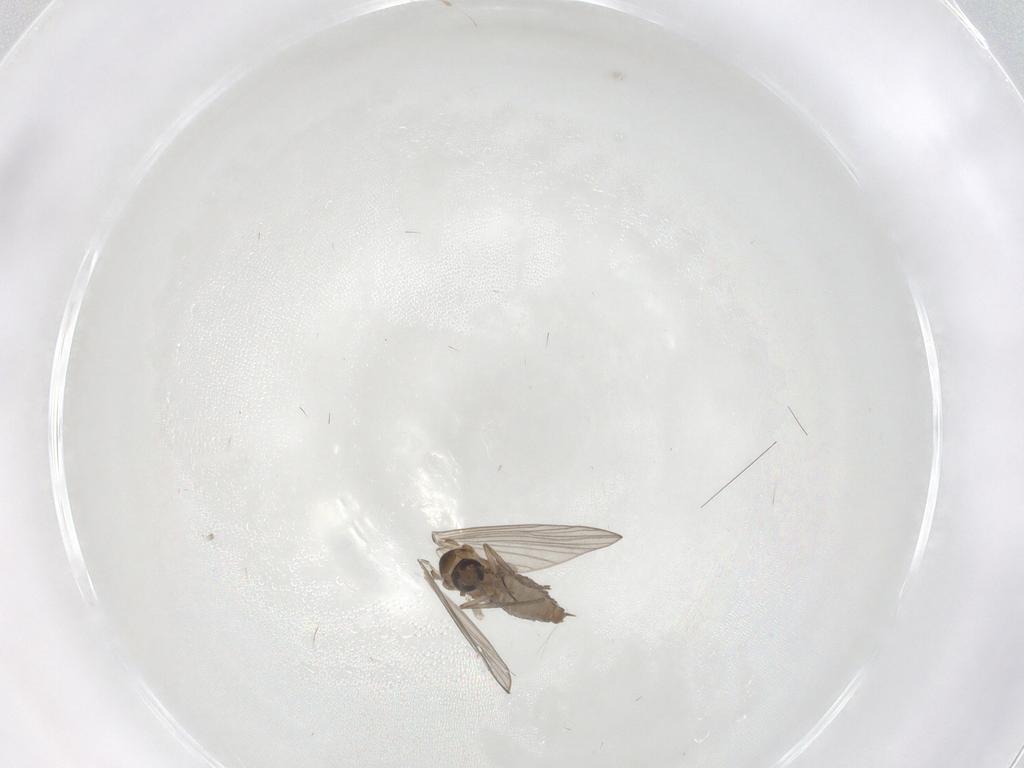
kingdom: Animalia
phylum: Arthropoda
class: Insecta
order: Diptera
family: Psychodidae
